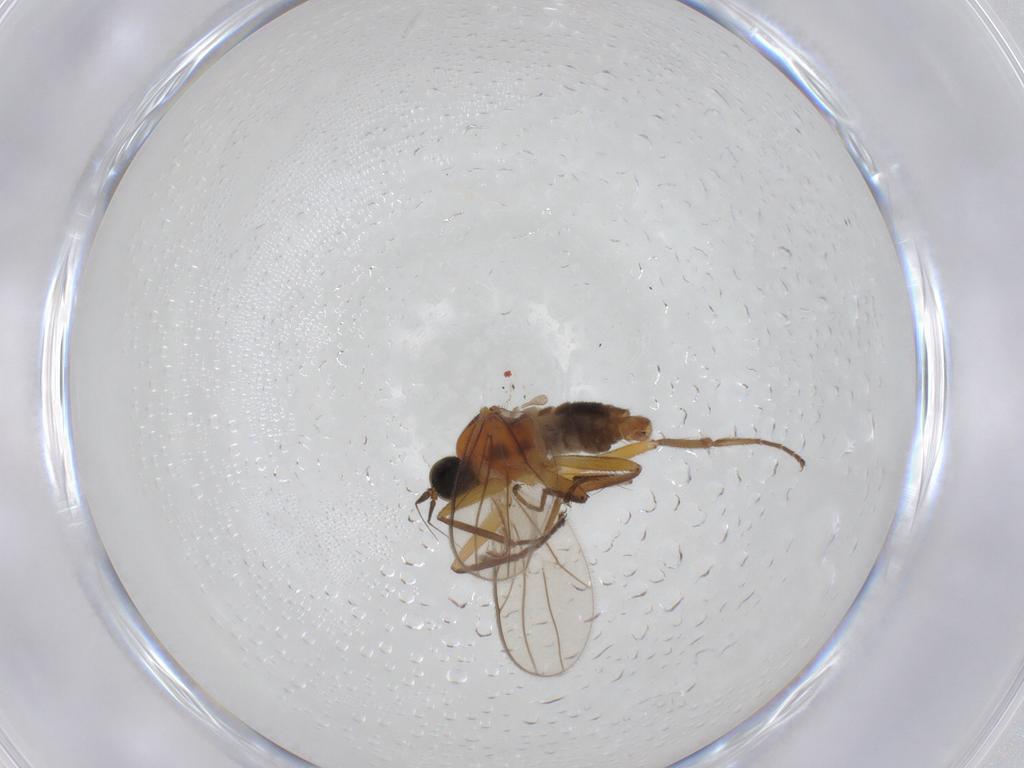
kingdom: Animalia
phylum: Arthropoda
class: Insecta
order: Diptera
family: Hybotidae
